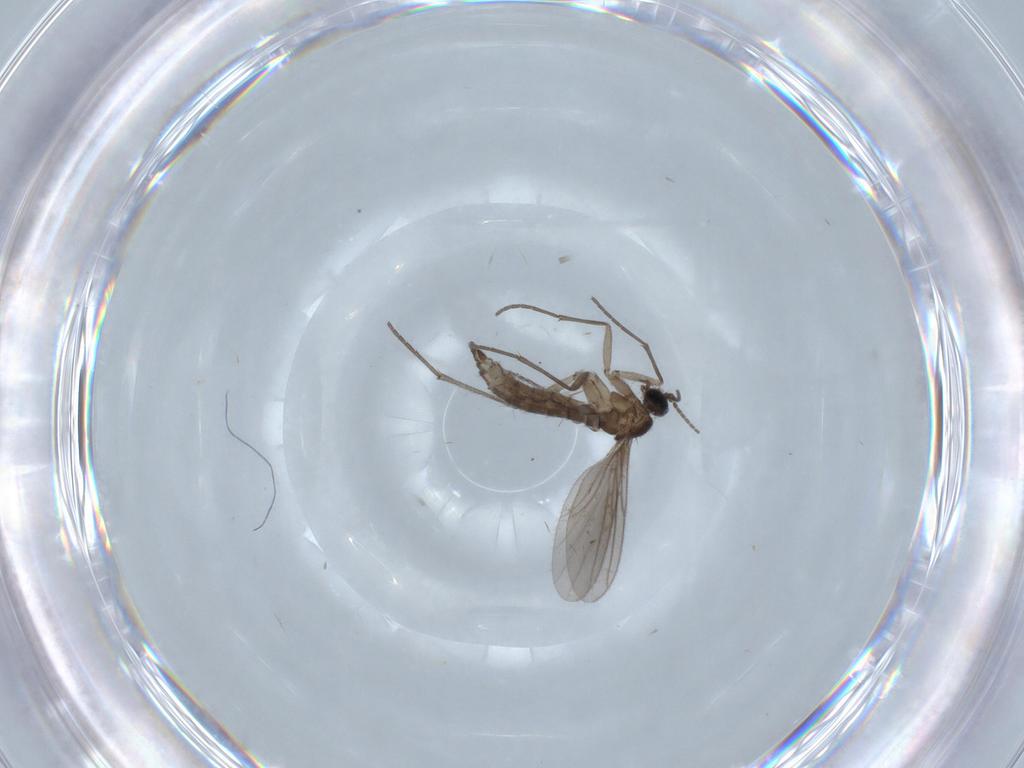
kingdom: Animalia
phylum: Arthropoda
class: Insecta
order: Diptera
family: Sciaridae
